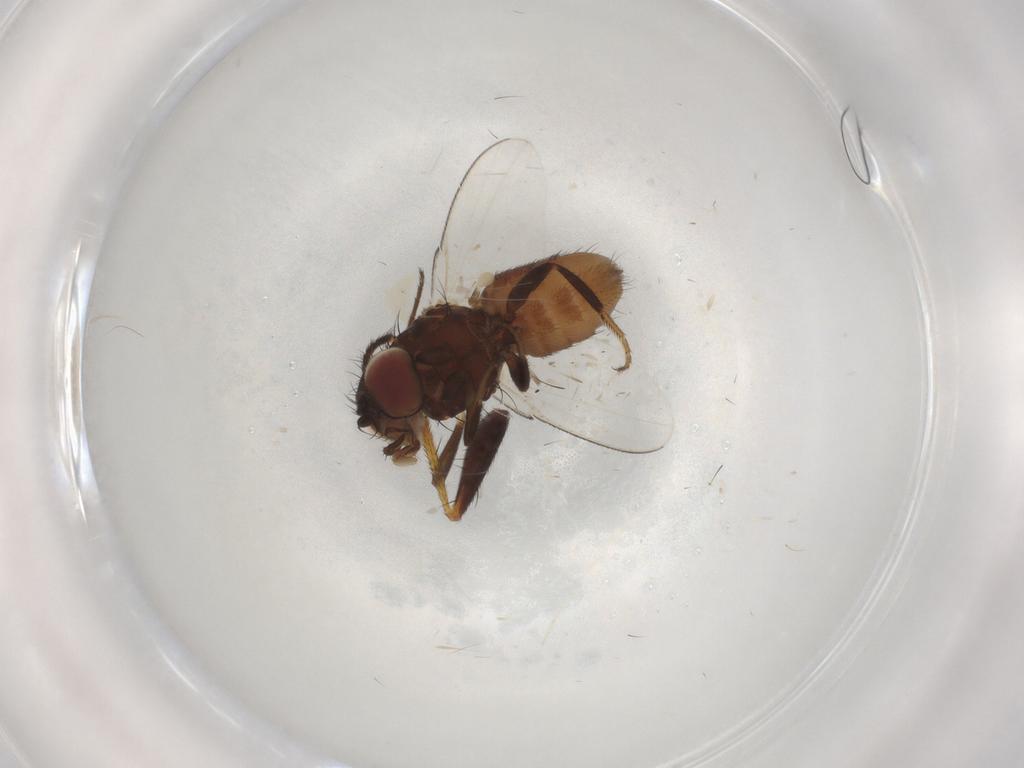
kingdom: Animalia
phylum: Arthropoda
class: Insecta
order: Diptera
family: Dolichopodidae
